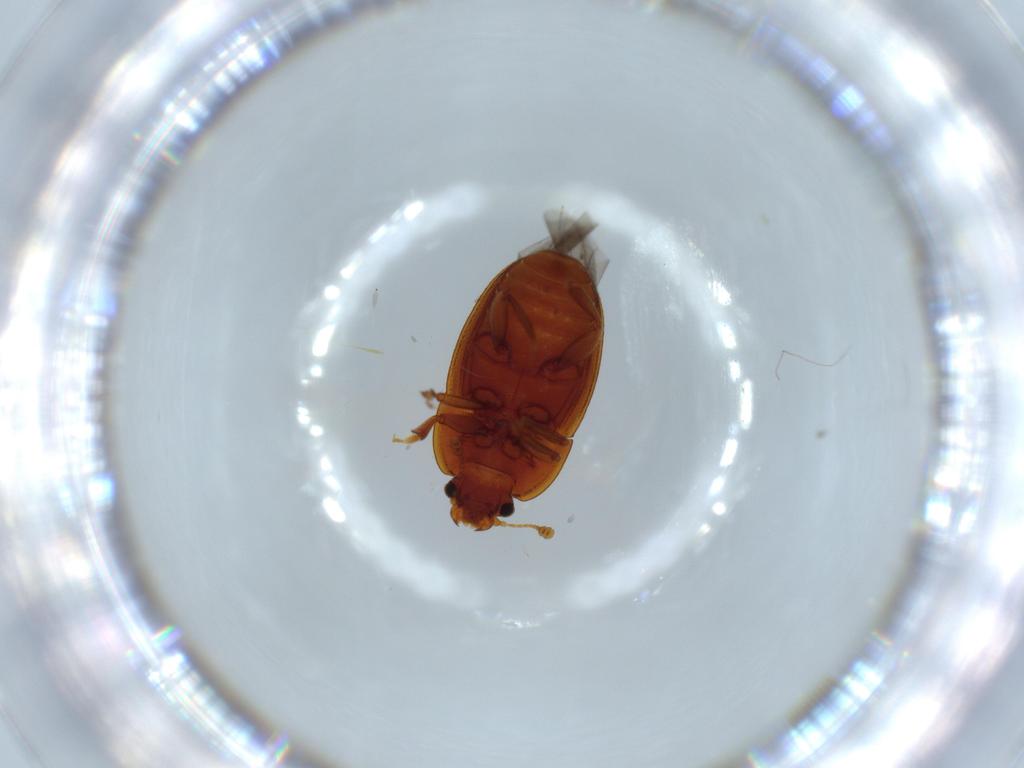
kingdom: Animalia
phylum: Arthropoda
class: Insecta
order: Coleoptera
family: Nitidulidae
